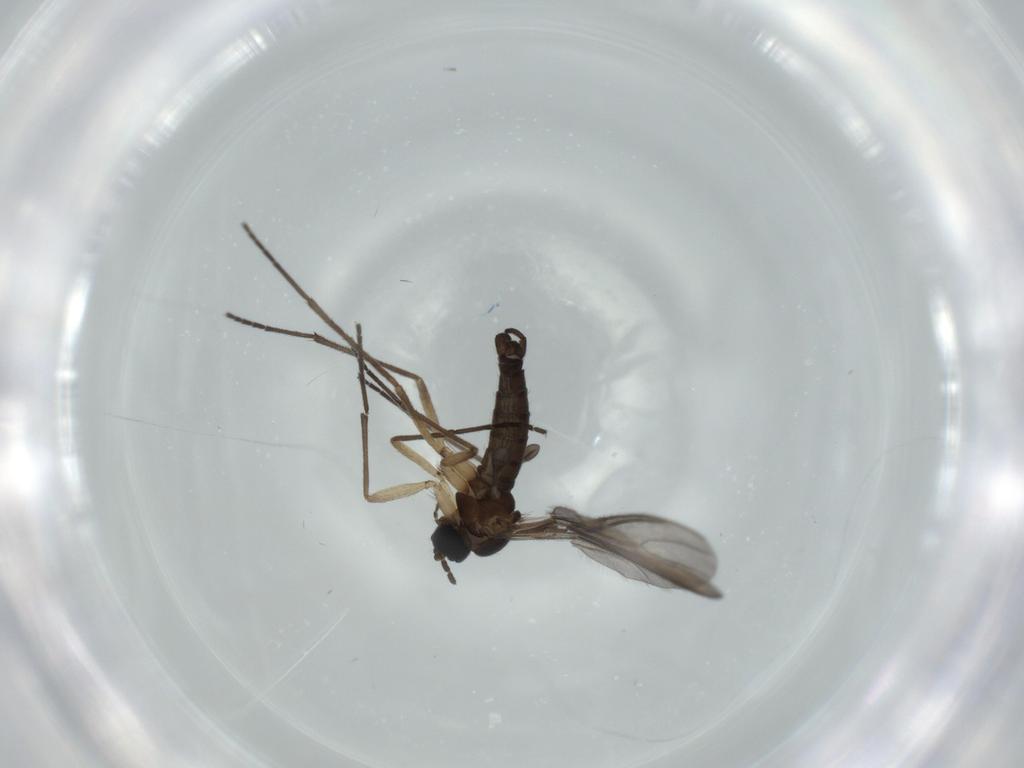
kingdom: Animalia
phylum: Arthropoda
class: Insecta
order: Diptera
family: Sciaridae
